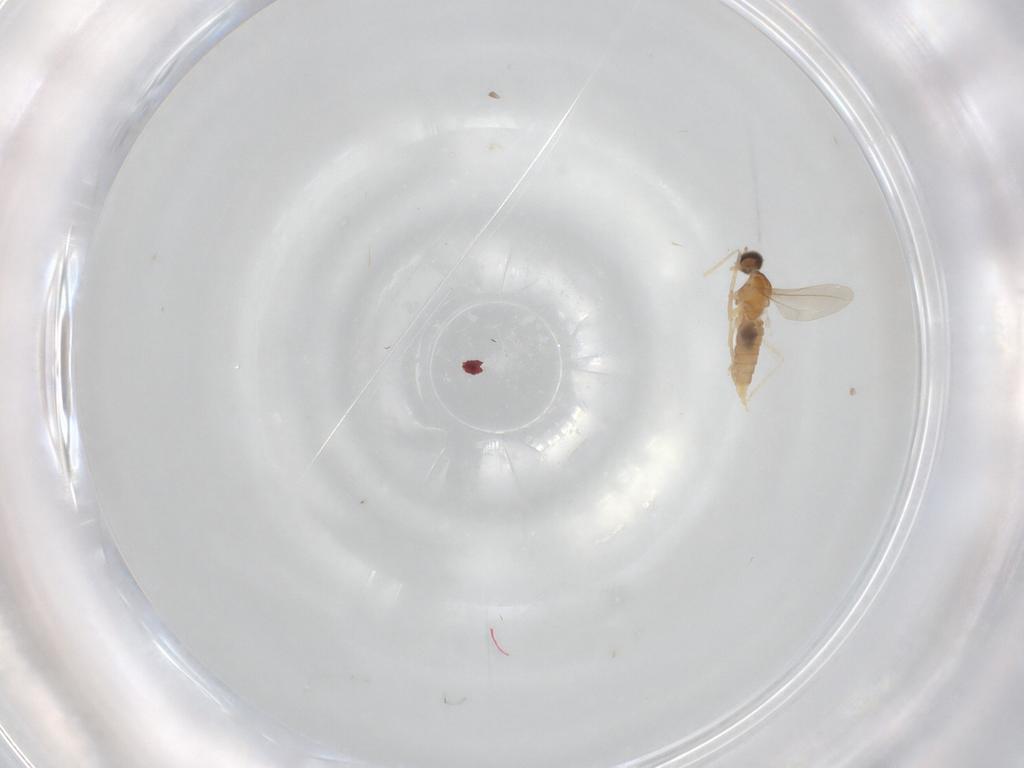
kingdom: Animalia
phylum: Arthropoda
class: Insecta
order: Diptera
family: Cecidomyiidae
